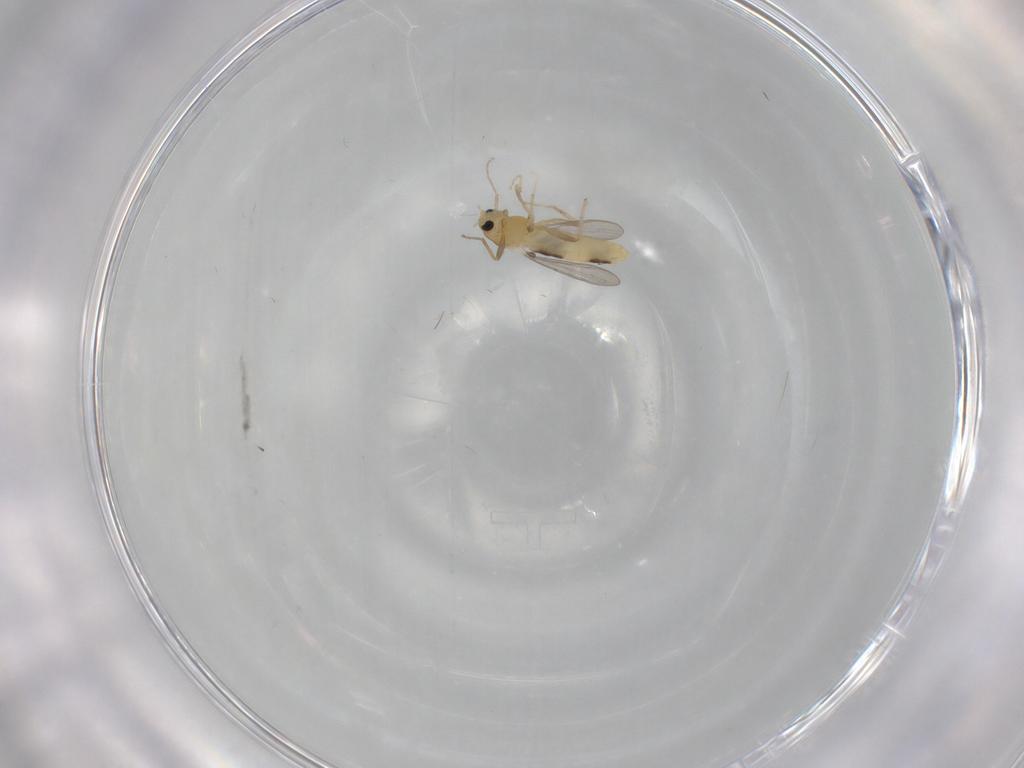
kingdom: Animalia
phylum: Arthropoda
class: Insecta
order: Diptera
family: Chironomidae
